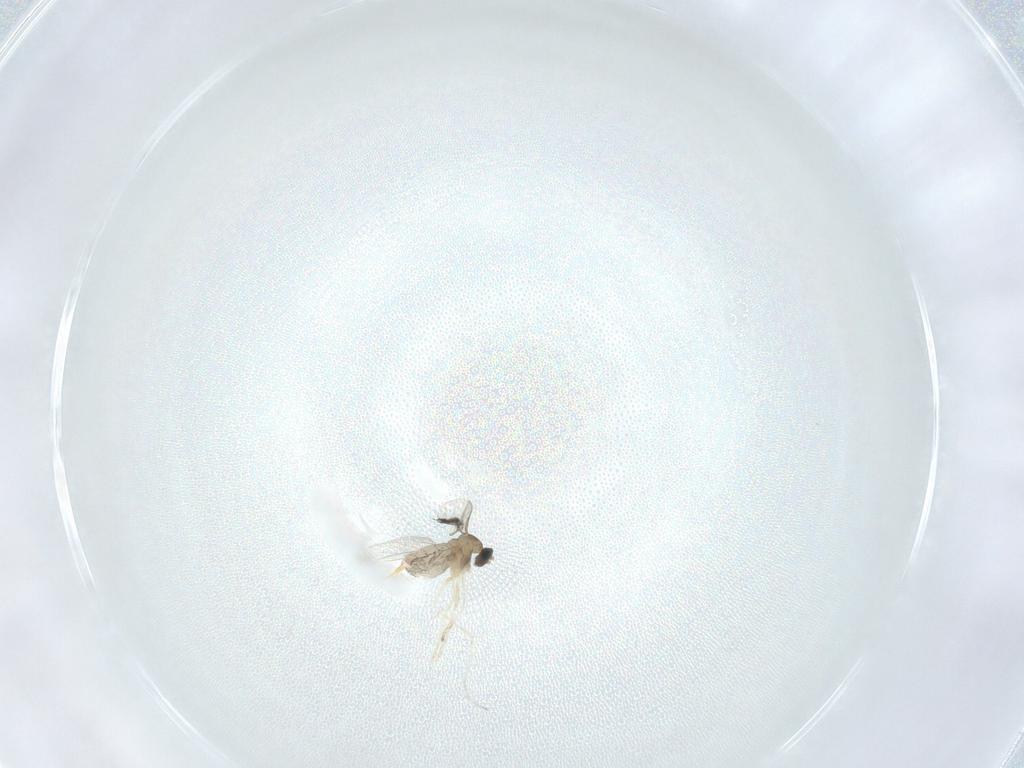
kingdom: Animalia
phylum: Arthropoda
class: Insecta
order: Diptera
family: Cecidomyiidae
